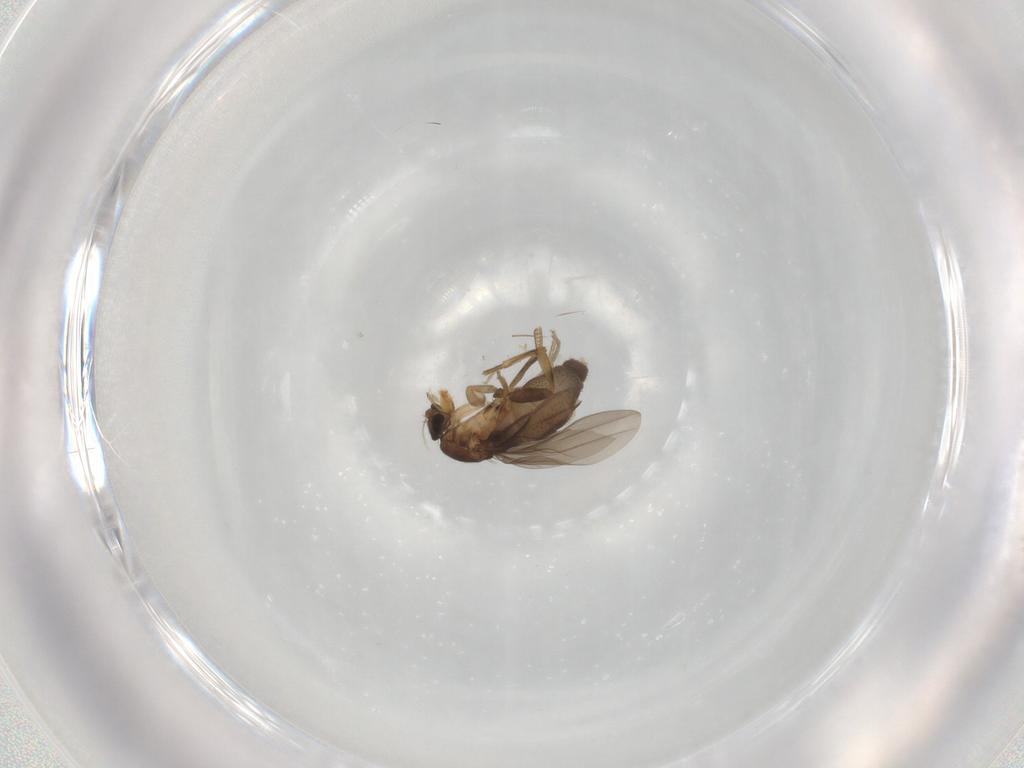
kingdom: Animalia
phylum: Arthropoda
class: Insecta
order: Diptera
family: Phoridae
